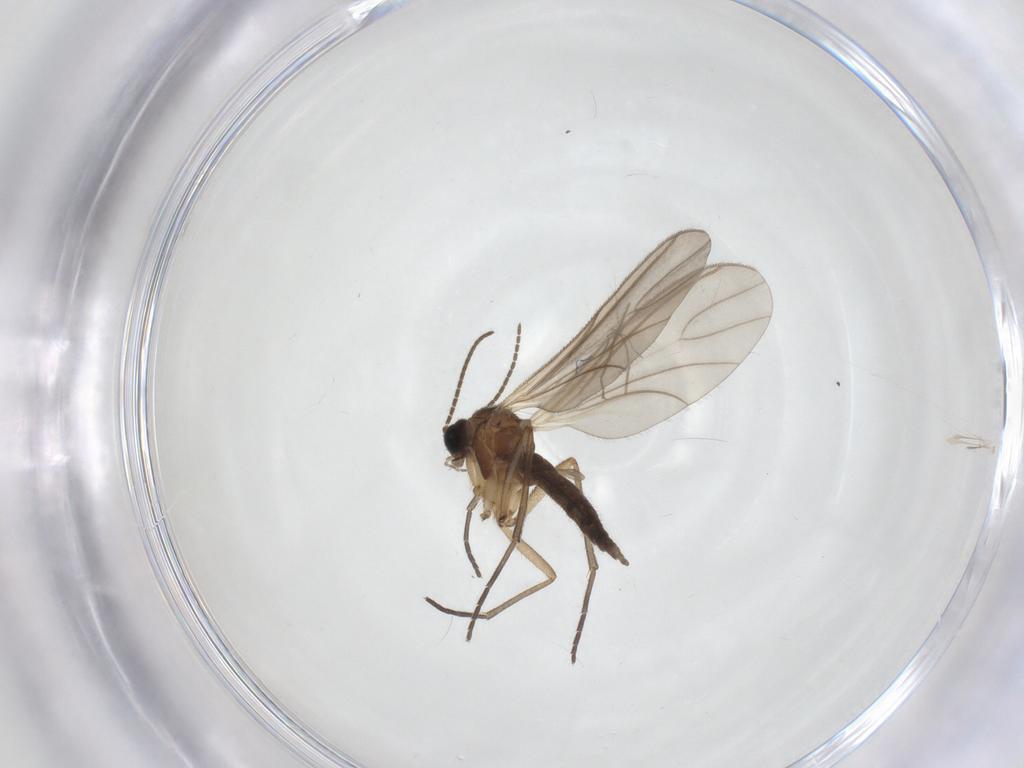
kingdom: Animalia
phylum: Arthropoda
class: Insecta
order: Diptera
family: Sciaridae
